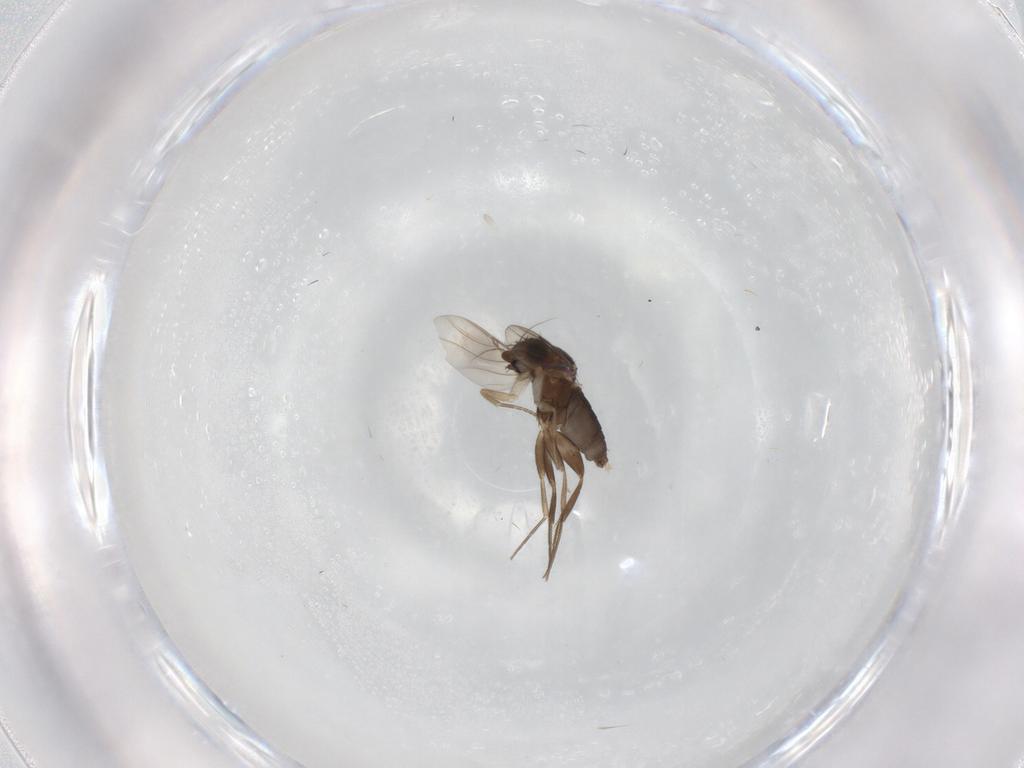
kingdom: Animalia
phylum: Arthropoda
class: Insecta
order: Diptera
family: Phoridae
